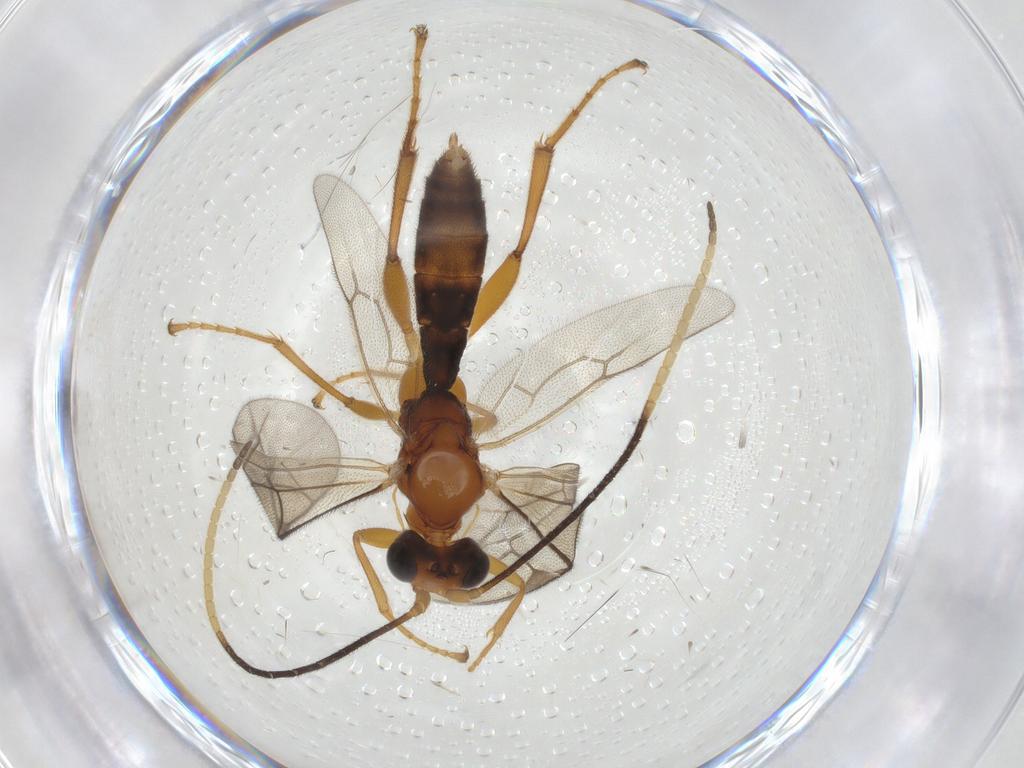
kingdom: Animalia
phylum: Arthropoda
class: Insecta
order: Hymenoptera
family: Ichneumonidae
